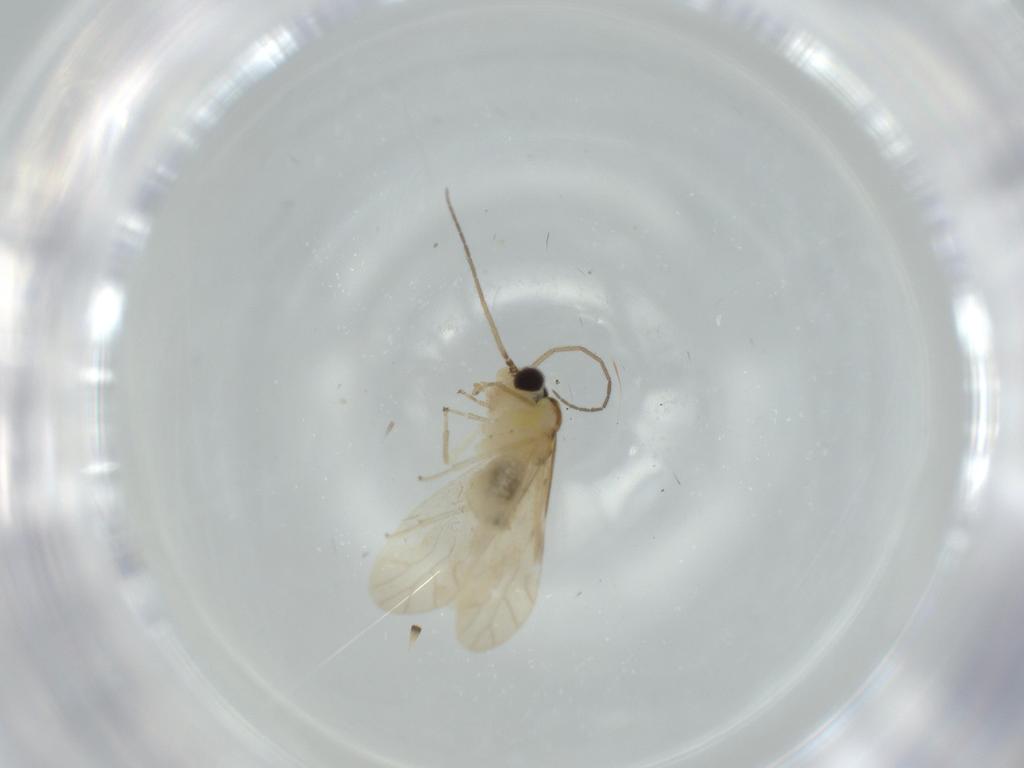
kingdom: Animalia
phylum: Arthropoda
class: Insecta
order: Psocodea
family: Caeciliusidae
